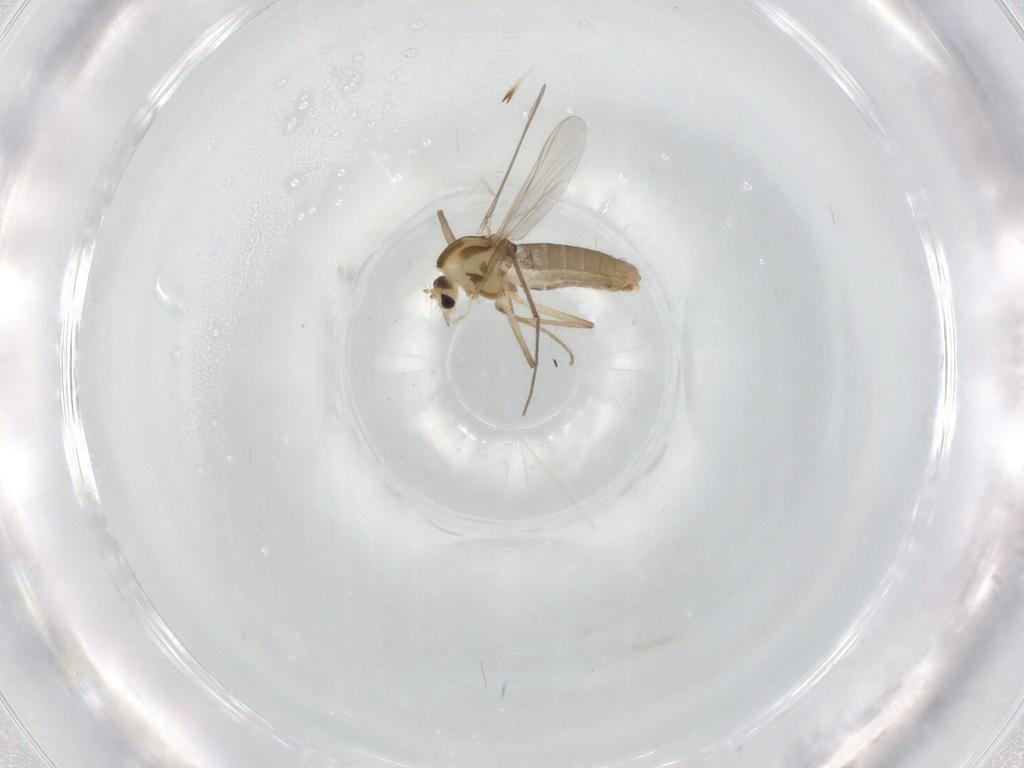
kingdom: Animalia
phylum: Arthropoda
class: Insecta
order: Diptera
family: Chironomidae
